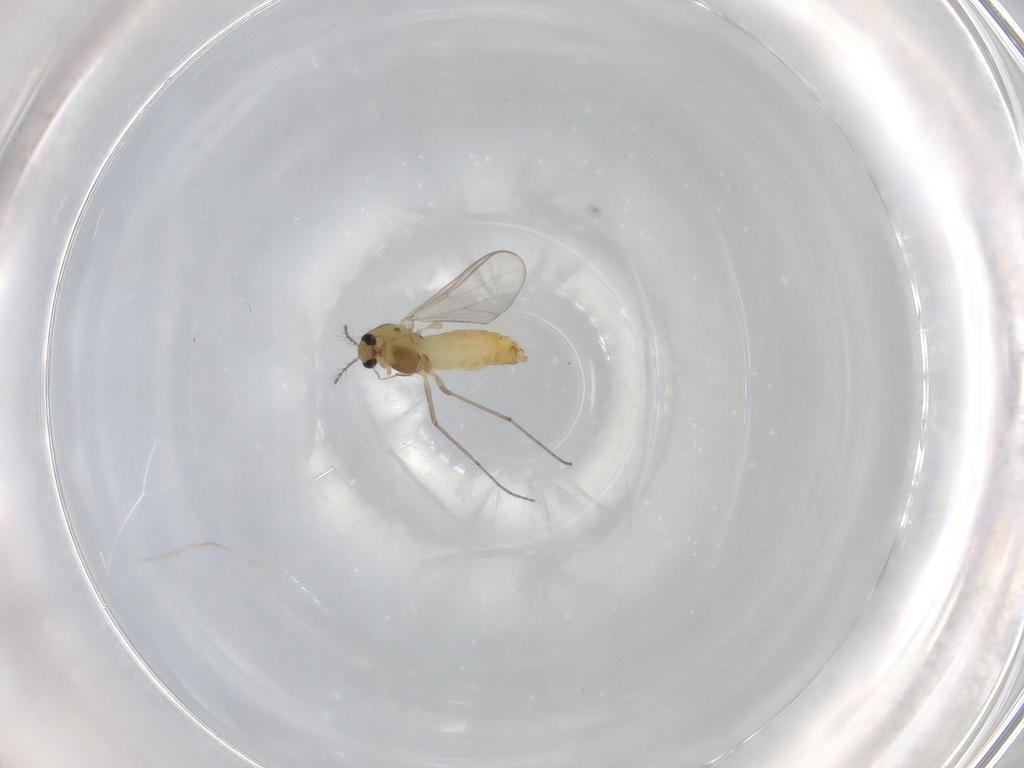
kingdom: Animalia
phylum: Arthropoda
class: Insecta
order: Diptera
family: Chironomidae
